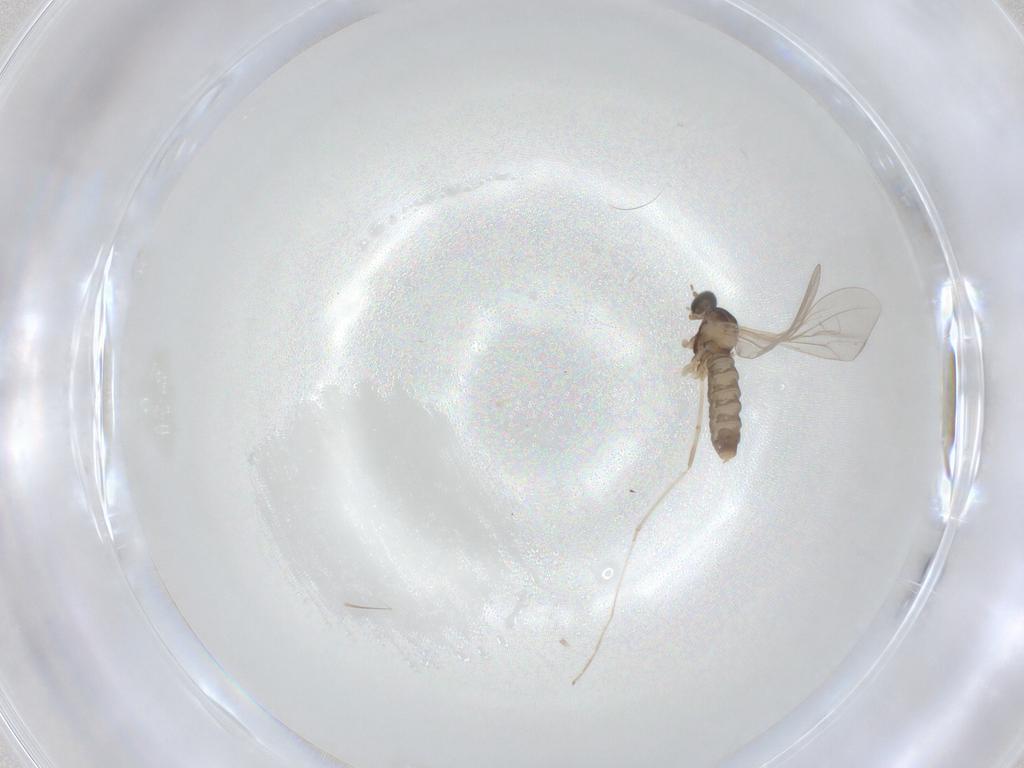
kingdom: Animalia
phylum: Arthropoda
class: Insecta
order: Diptera
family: Cecidomyiidae
